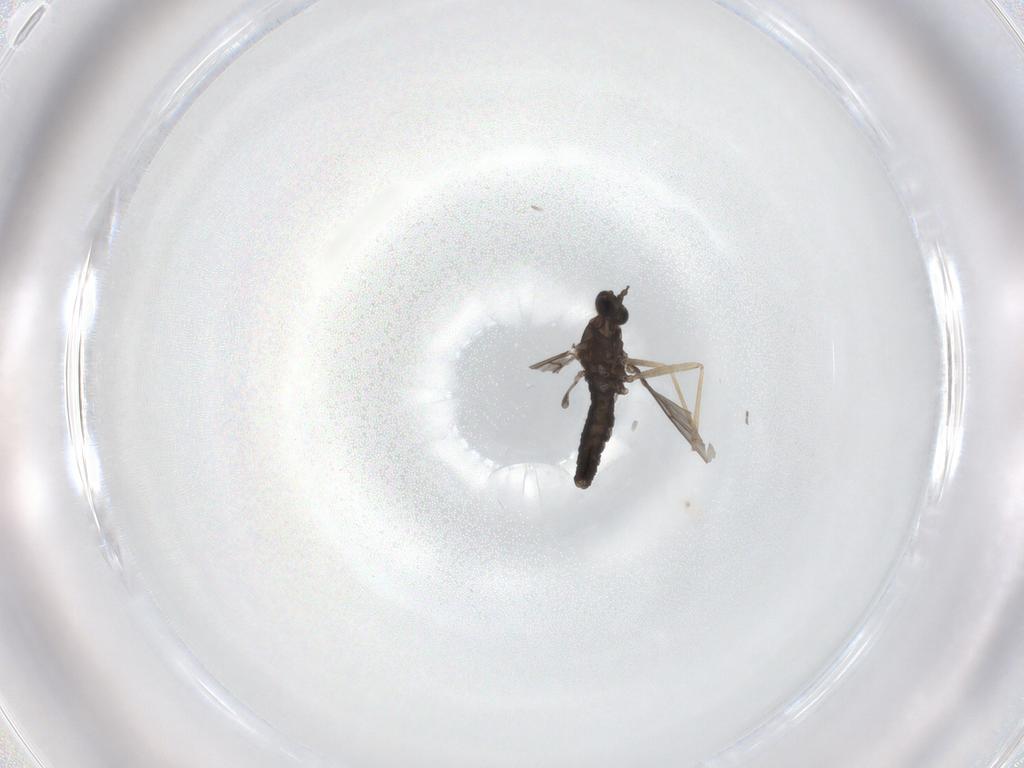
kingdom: Animalia
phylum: Arthropoda
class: Insecta
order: Diptera
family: Cecidomyiidae
